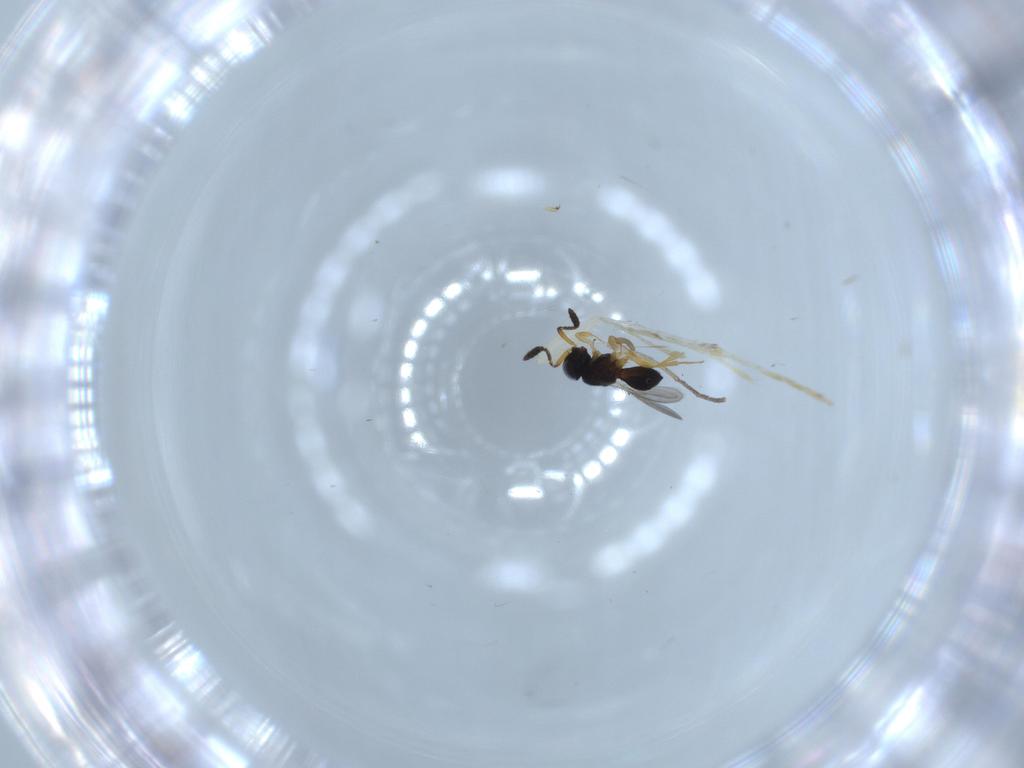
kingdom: Animalia
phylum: Arthropoda
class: Insecta
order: Hymenoptera
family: Scelionidae
